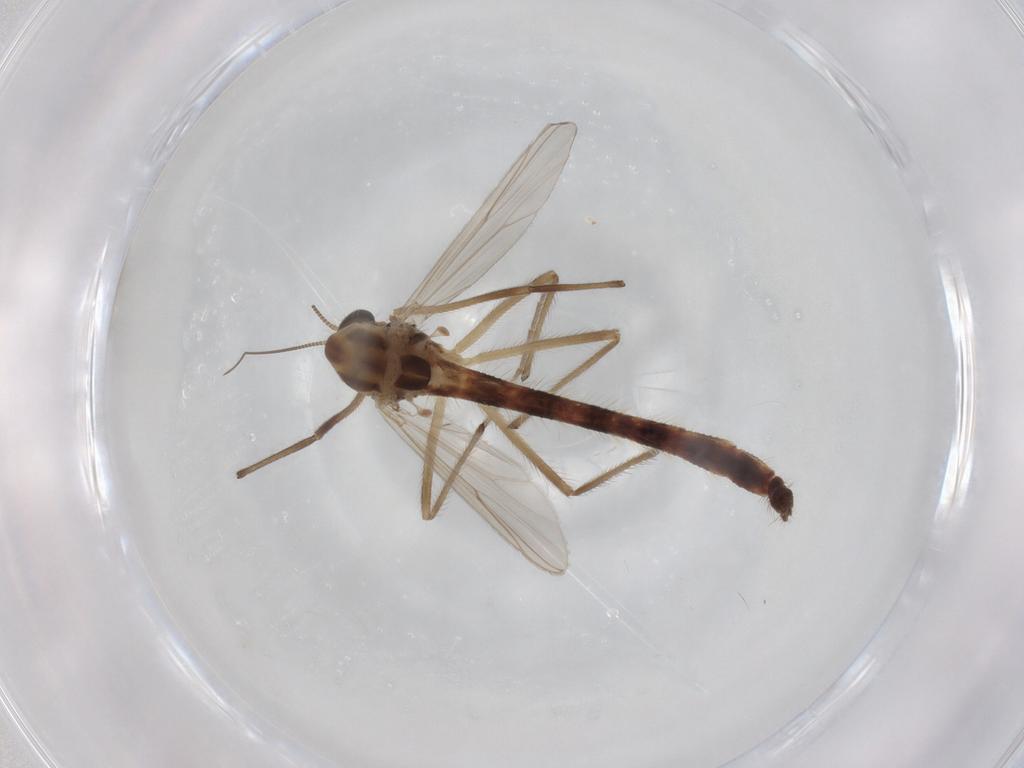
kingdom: Animalia
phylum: Arthropoda
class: Insecta
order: Diptera
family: Chironomidae
